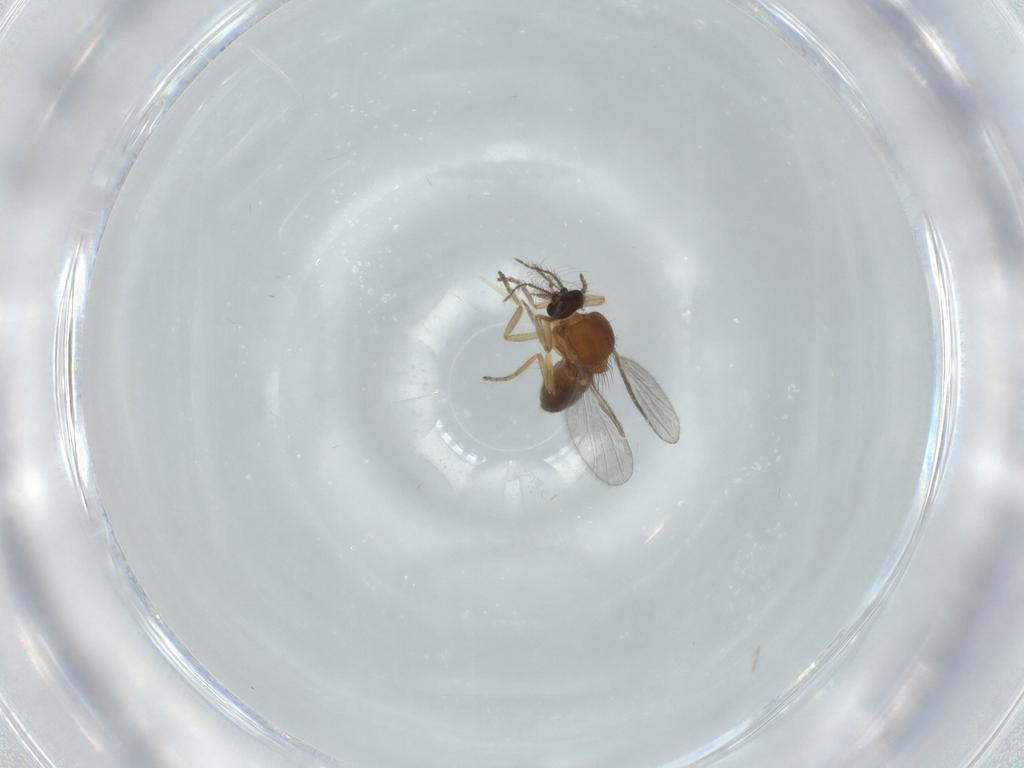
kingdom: Animalia
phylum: Arthropoda
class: Insecta
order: Diptera
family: Ceratopogonidae
